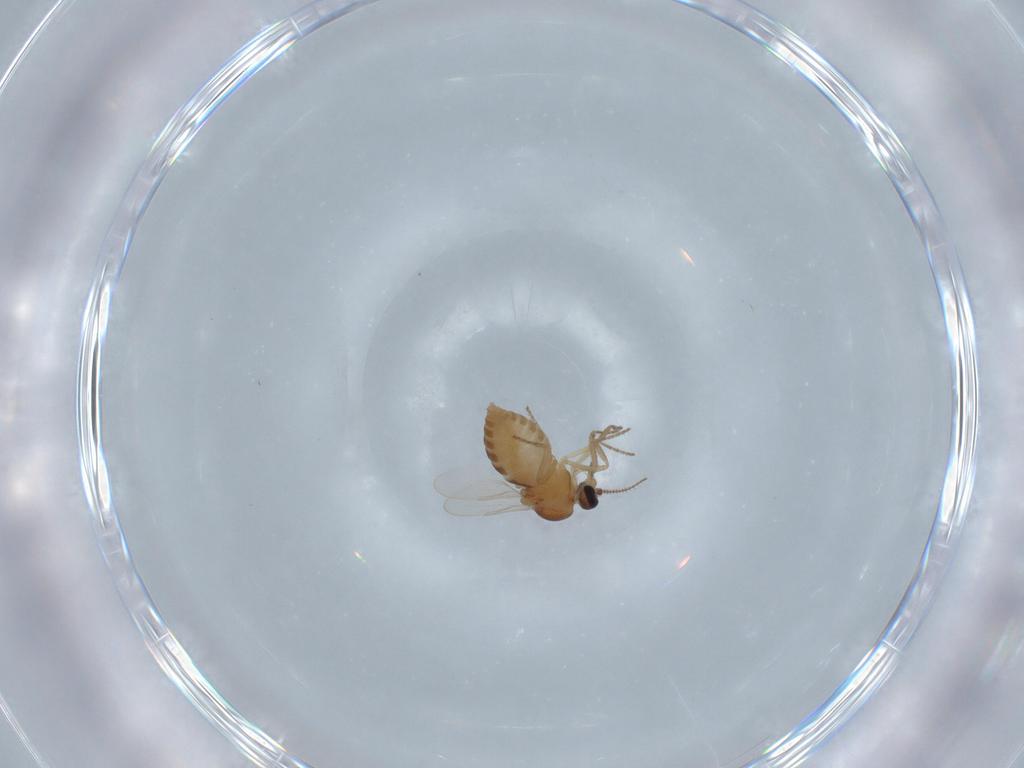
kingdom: Animalia
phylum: Arthropoda
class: Insecta
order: Diptera
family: Ceratopogonidae
